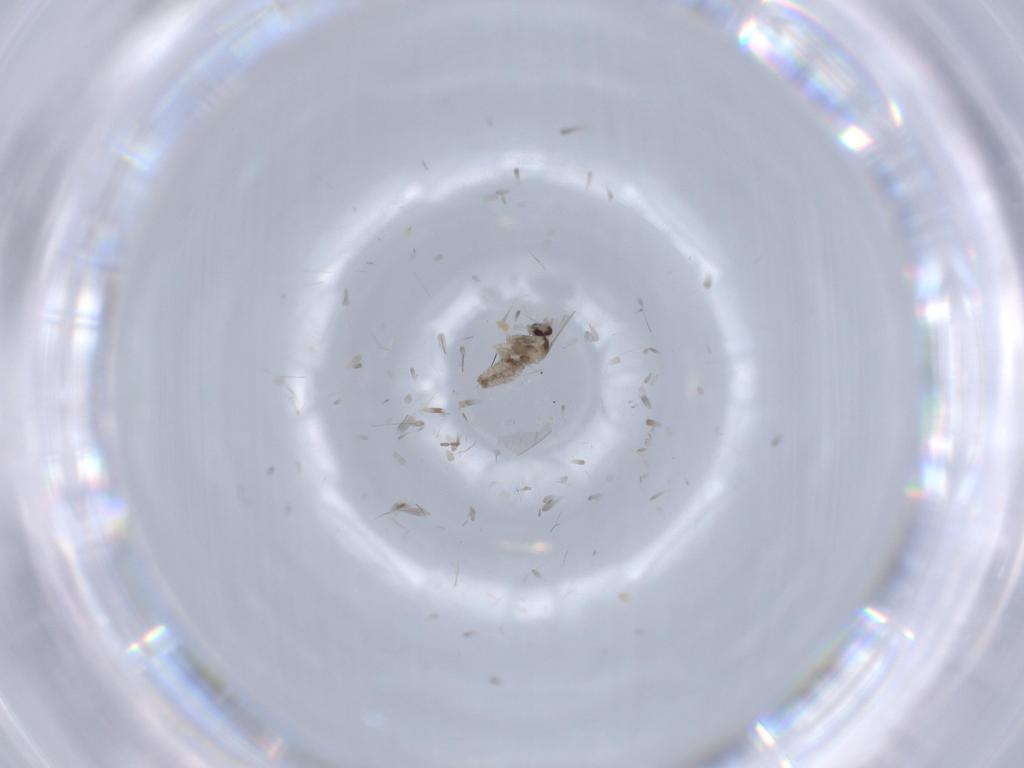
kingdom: Animalia
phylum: Arthropoda
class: Insecta
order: Diptera
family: Cecidomyiidae
